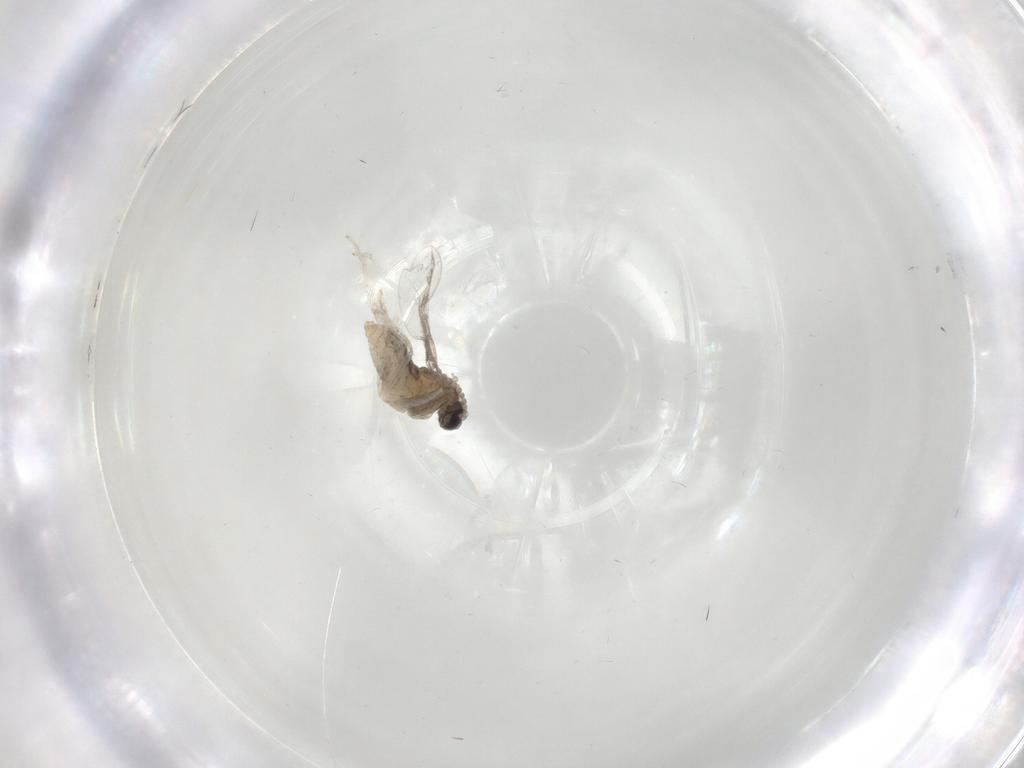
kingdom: Animalia
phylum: Arthropoda
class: Insecta
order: Diptera
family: Cecidomyiidae
